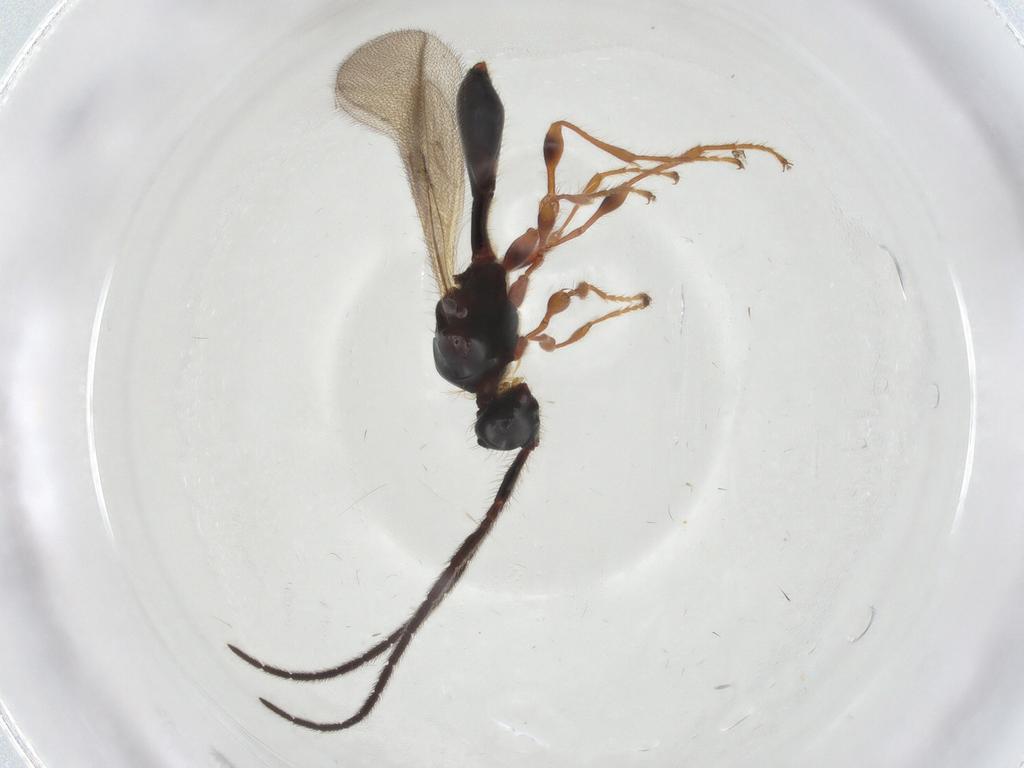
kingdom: Animalia
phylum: Arthropoda
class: Insecta
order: Hymenoptera
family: Diapriidae
